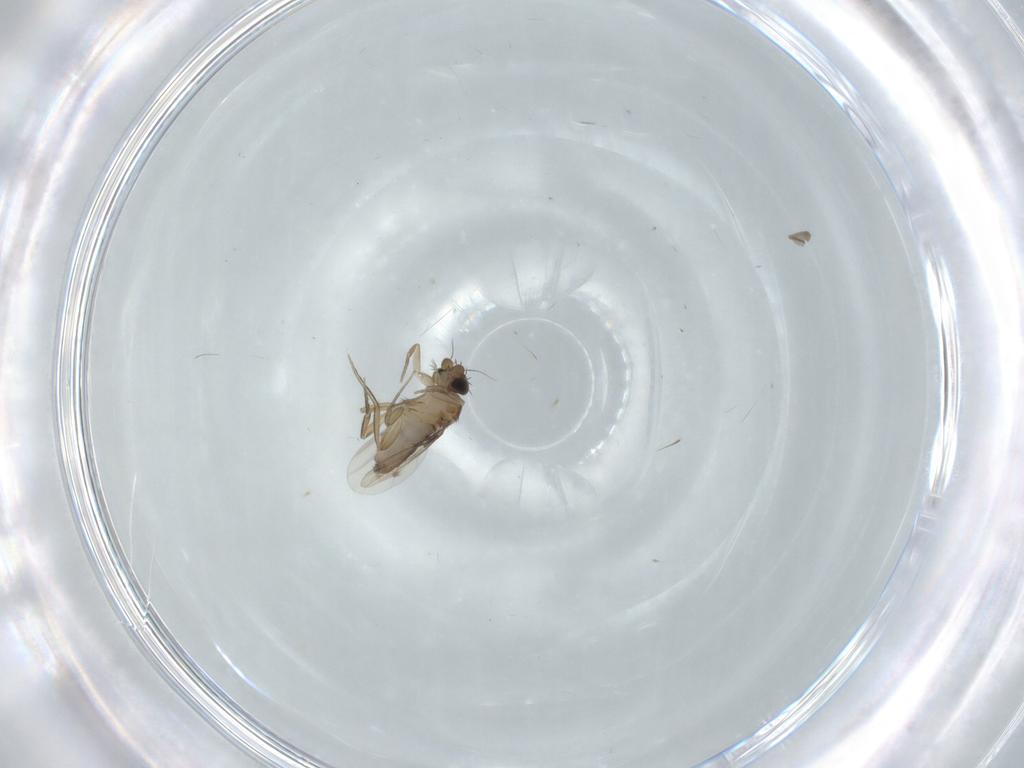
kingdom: Animalia
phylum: Arthropoda
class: Insecta
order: Diptera
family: Phoridae
